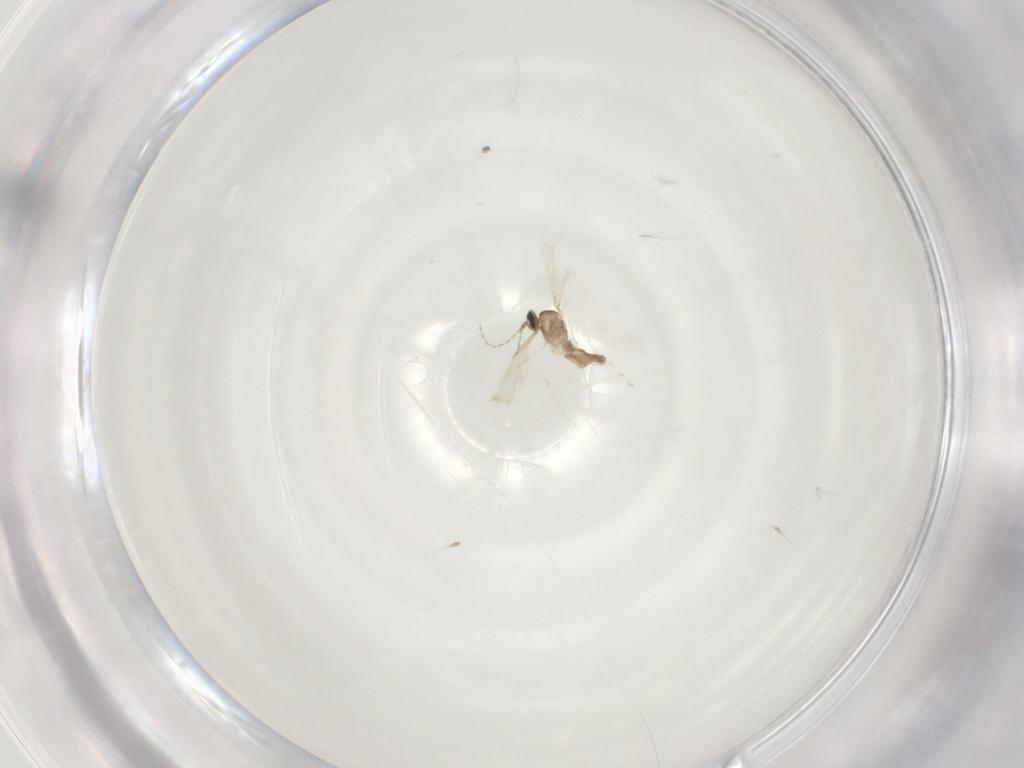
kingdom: Animalia
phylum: Arthropoda
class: Insecta
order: Diptera
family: Cecidomyiidae
